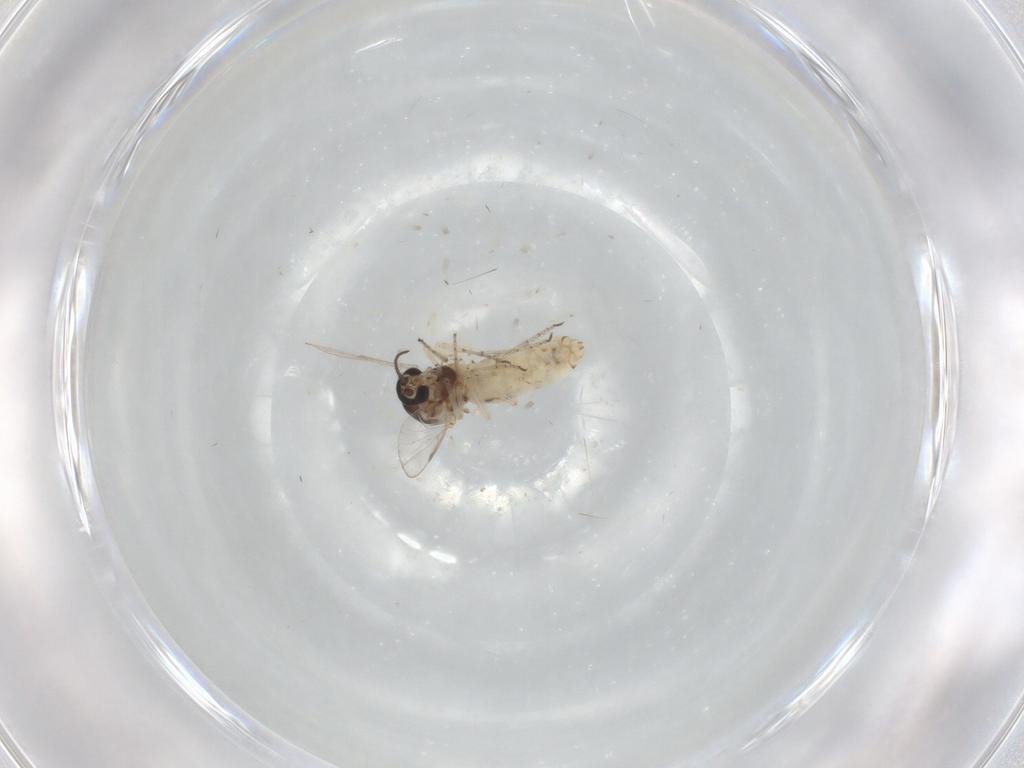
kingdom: Animalia
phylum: Arthropoda
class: Insecta
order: Diptera
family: Ceratopogonidae
